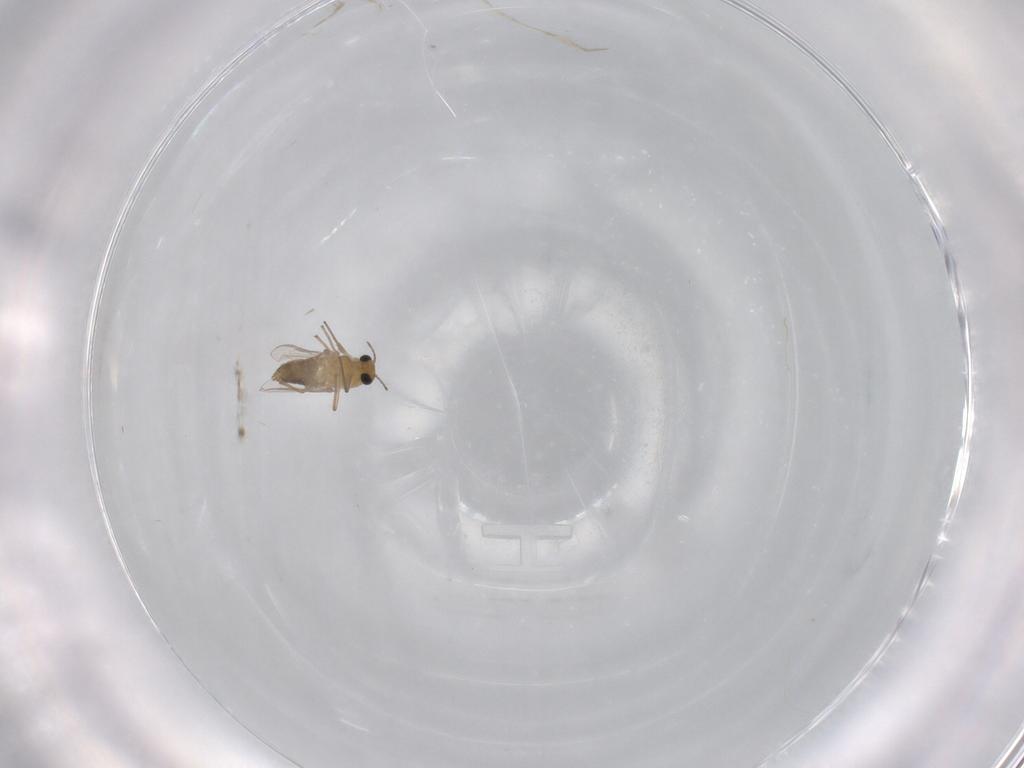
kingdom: Animalia
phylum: Arthropoda
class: Insecta
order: Diptera
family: Chironomidae
